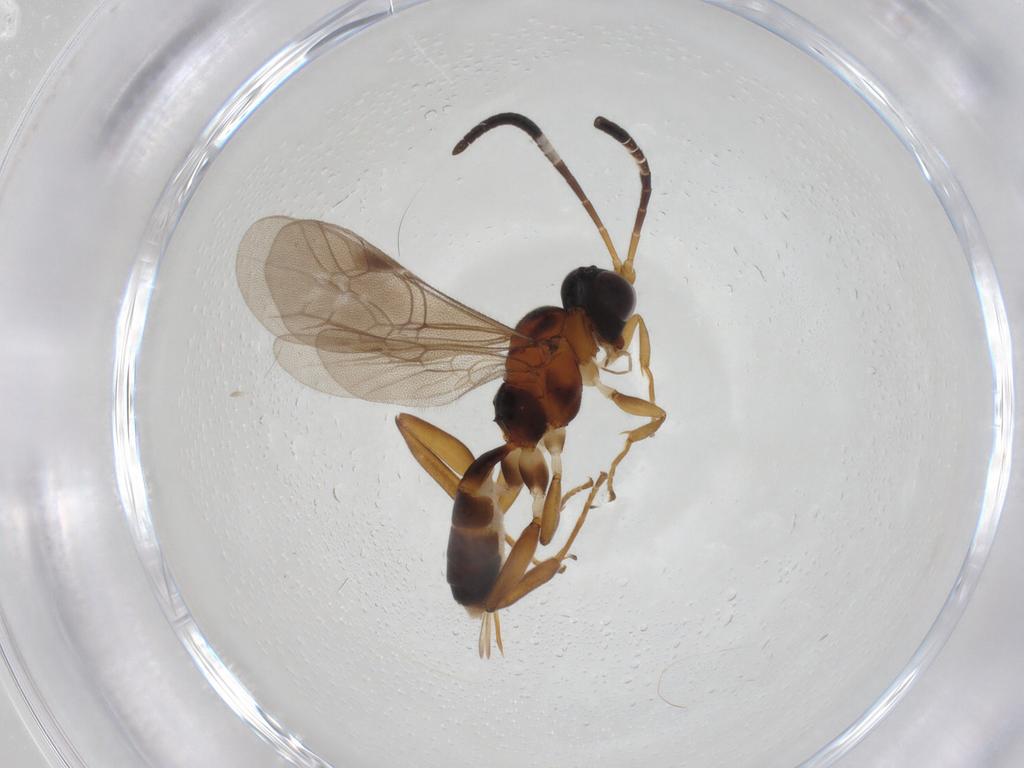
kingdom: Animalia
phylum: Arthropoda
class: Insecta
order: Hymenoptera
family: Ichneumonidae
